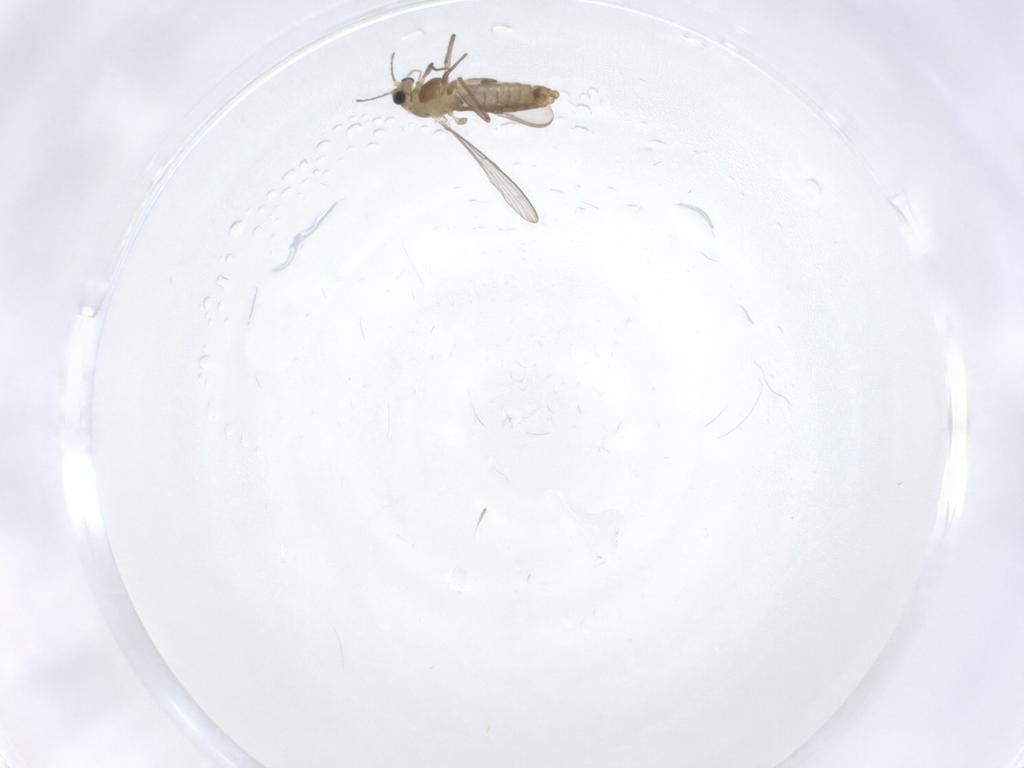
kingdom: Animalia
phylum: Arthropoda
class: Insecta
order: Diptera
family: Chironomidae
